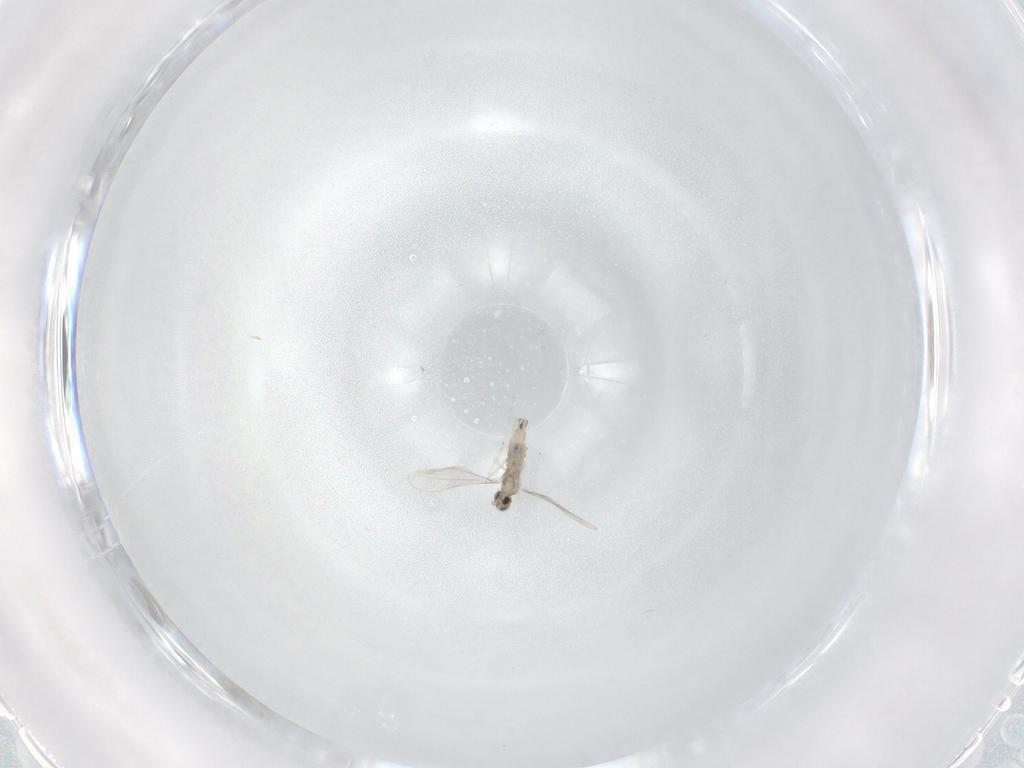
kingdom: Animalia
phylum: Arthropoda
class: Insecta
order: Diptera
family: Cecidomyiidae
